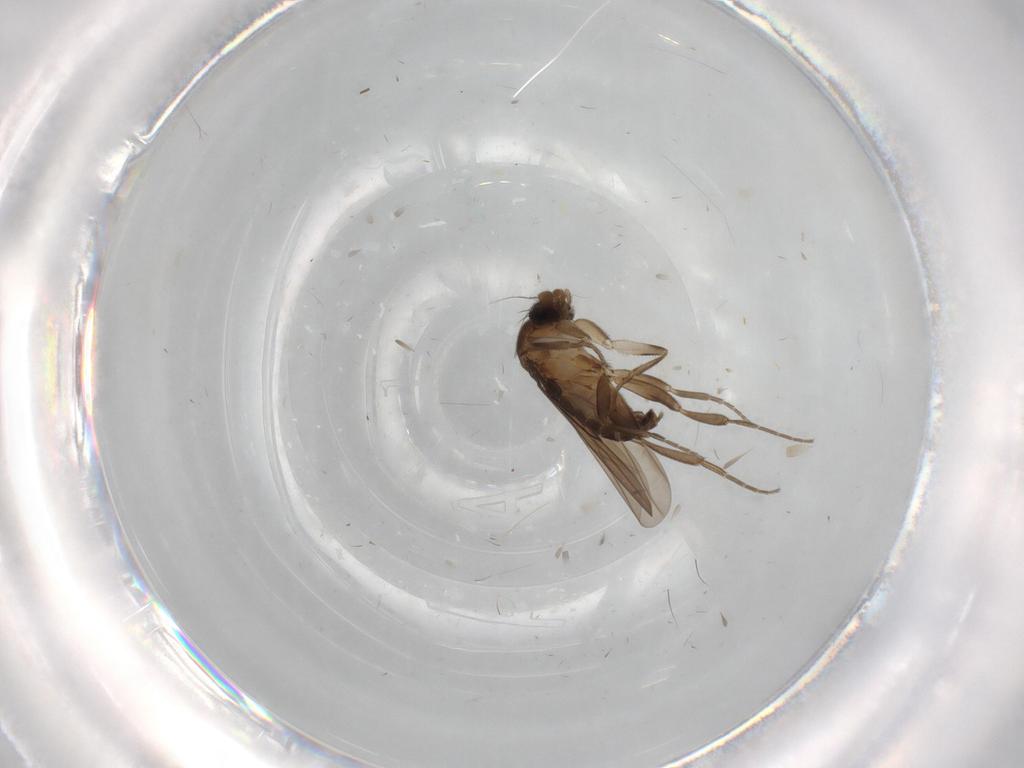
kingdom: Animalia
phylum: Arthropoda
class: Insecta
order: Diptera
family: Dolichopodidae
